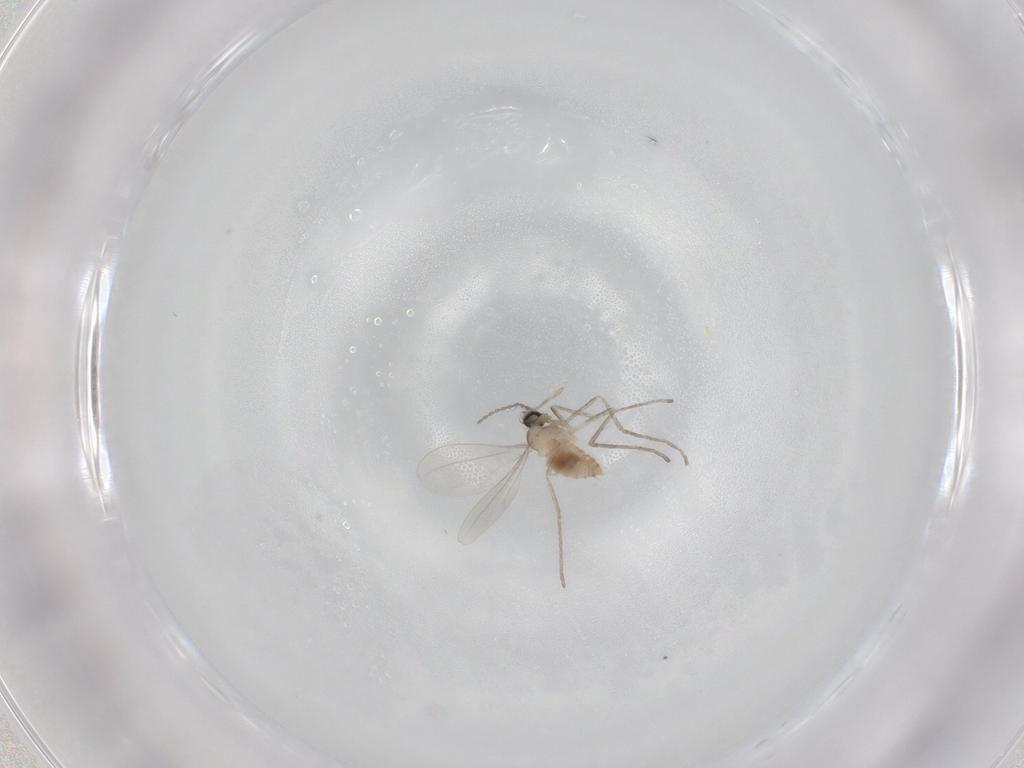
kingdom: Animalia
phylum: Arthropoda
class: Insecta
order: Diptera
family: Cecidomyiidae
